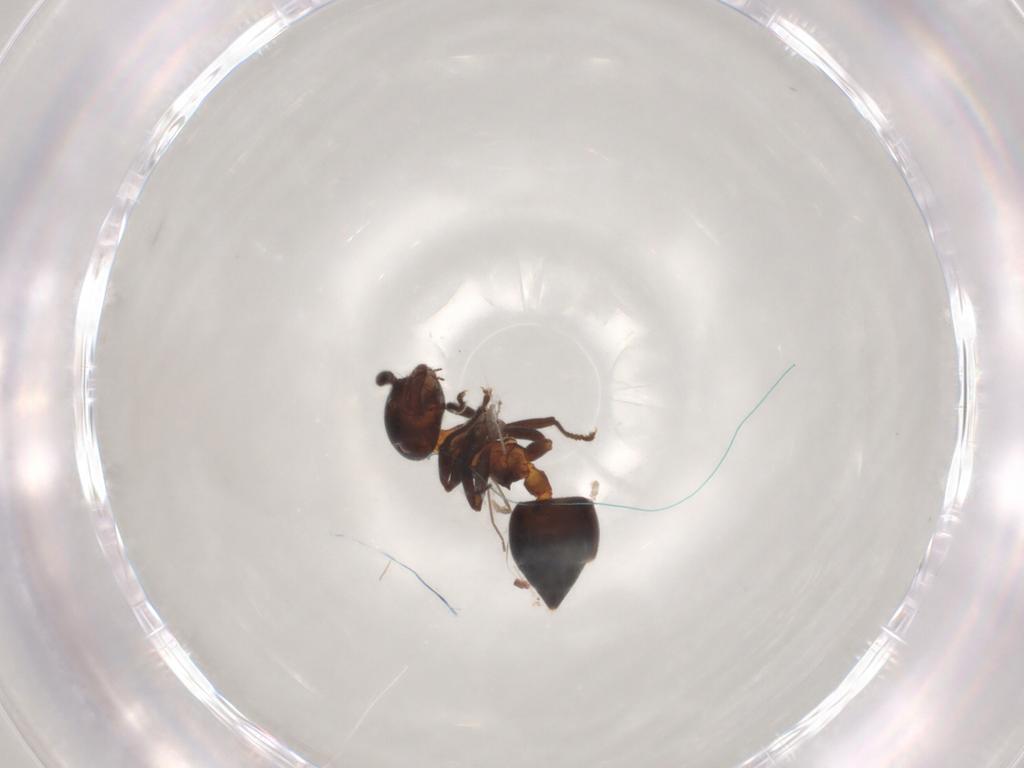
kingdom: Animalia
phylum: Arthropoda
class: Insecta
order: Hymenoptera
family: Formicidae
